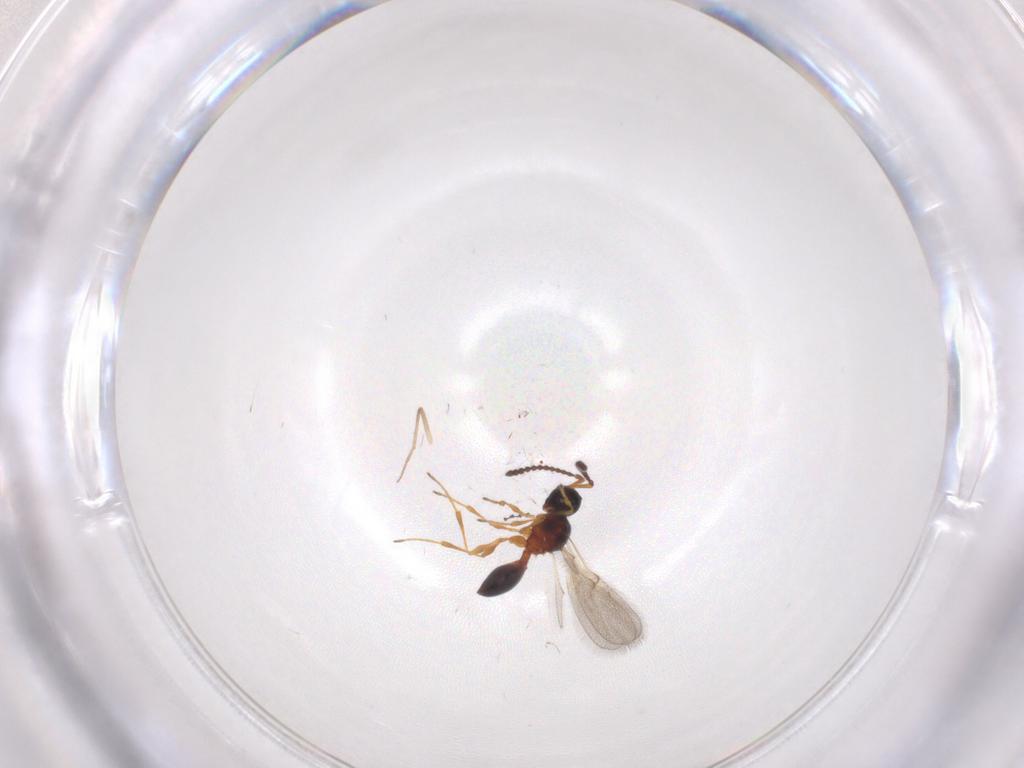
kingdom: Animalia
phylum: Arthropoda
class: Insecta
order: Hymenoptera
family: Diapriidae
